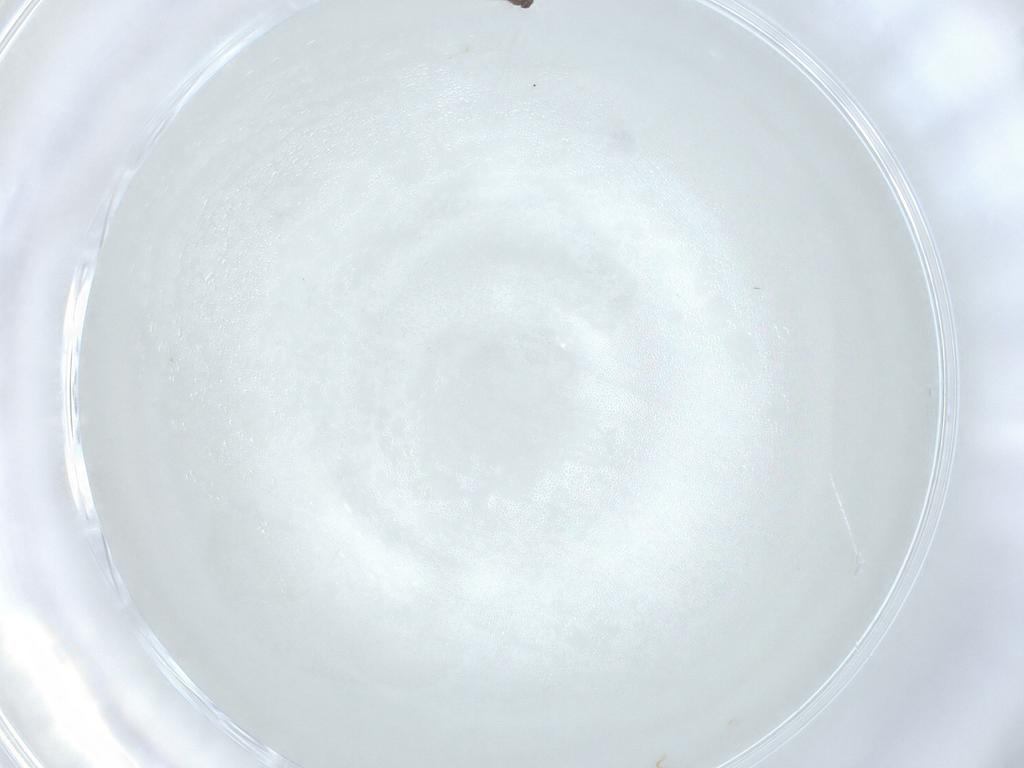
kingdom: Animalia
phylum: Arthropoda
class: Insecta
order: Hymenoptera
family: Mymaridae
